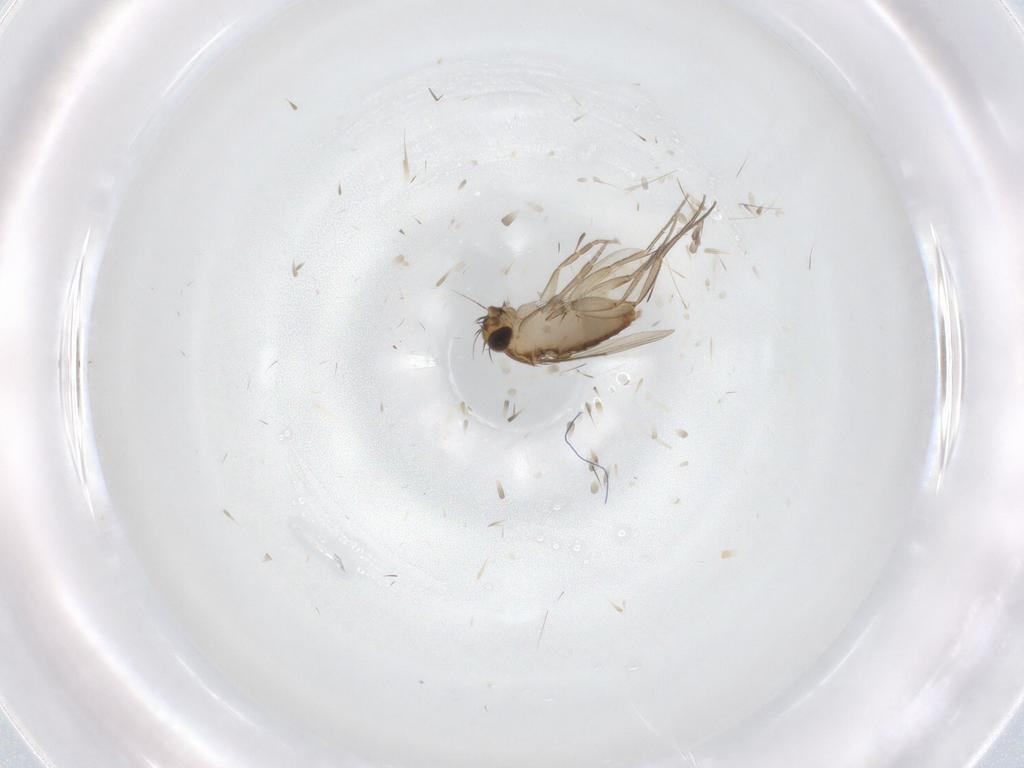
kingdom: Animalia
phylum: Arthropoda
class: Insecta
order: Diptera
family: Phoridae
